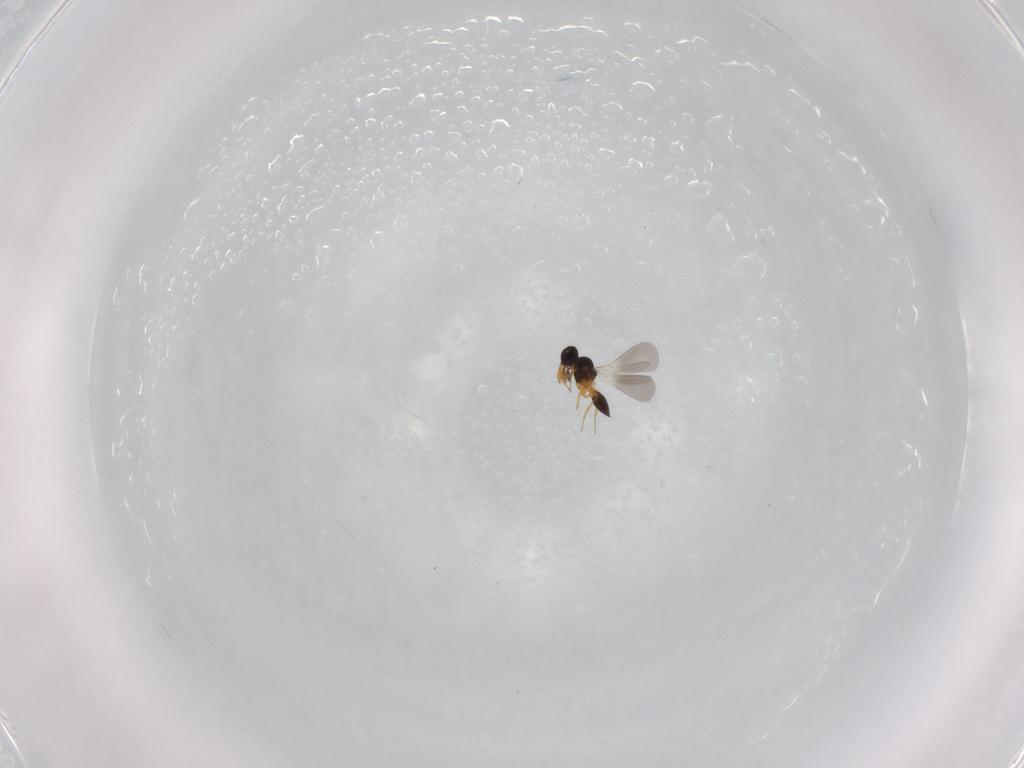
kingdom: Animalia
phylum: Arthropoda
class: Insecta
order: Hymenoptera
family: Platygastridae
